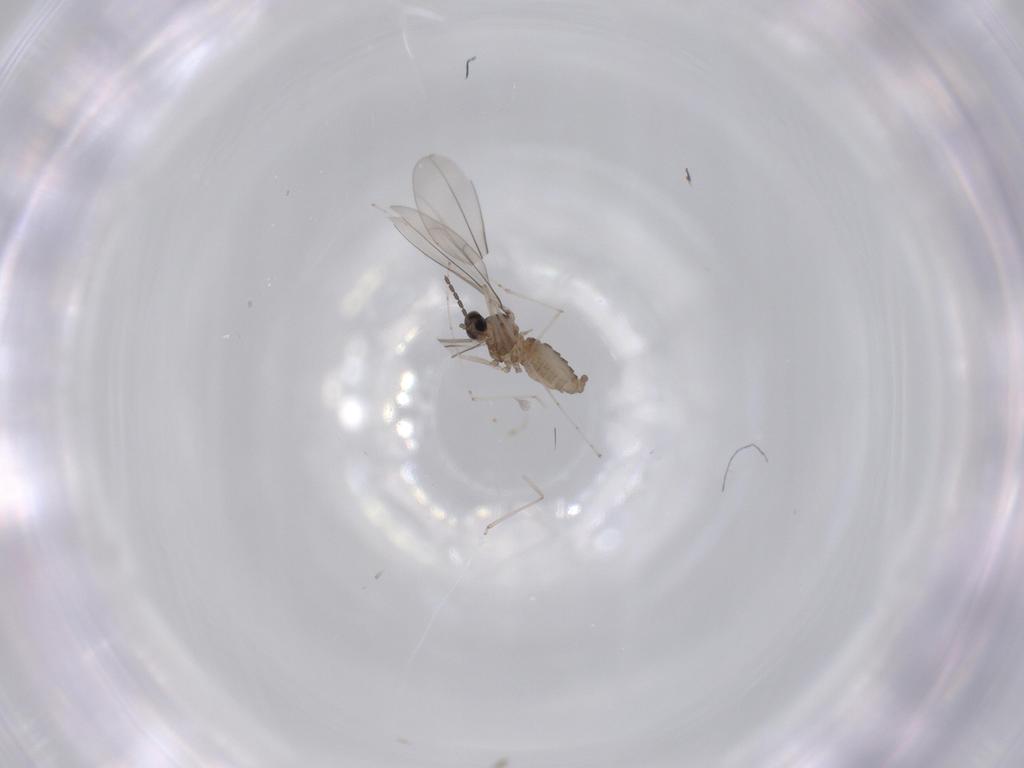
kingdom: Animalia
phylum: Arthropoda
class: Insecta
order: Diptera
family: Cecidomyiidae
